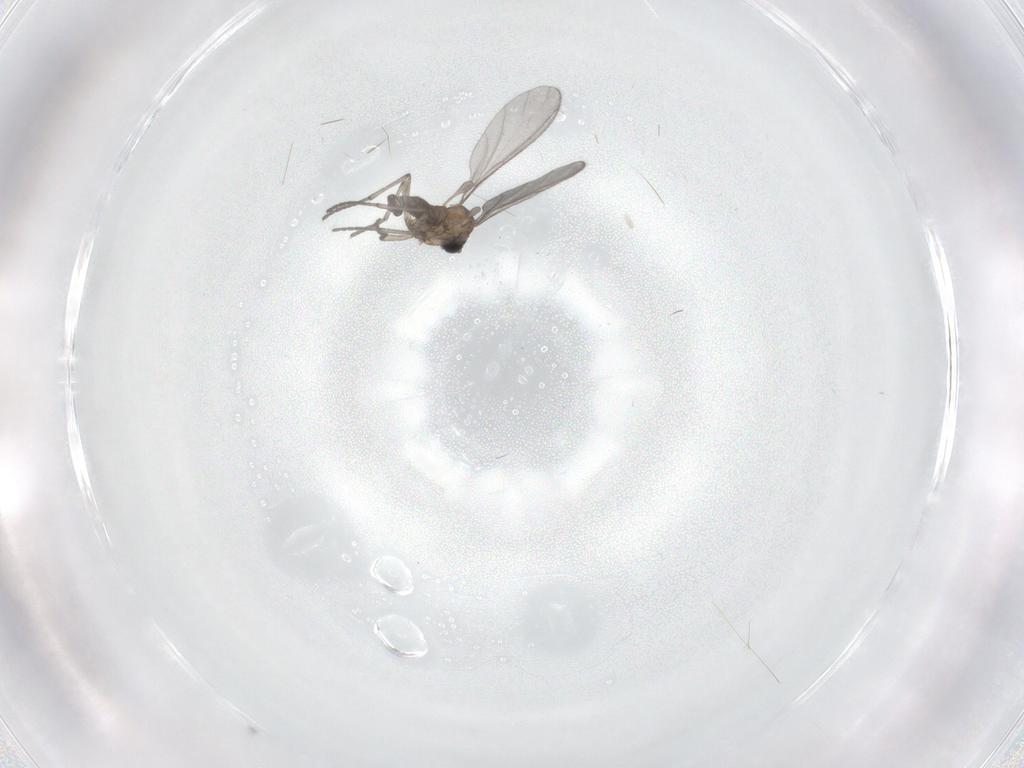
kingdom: Animalia
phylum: Arthropoda
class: Insecta
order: Diptera
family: Sciaridae
